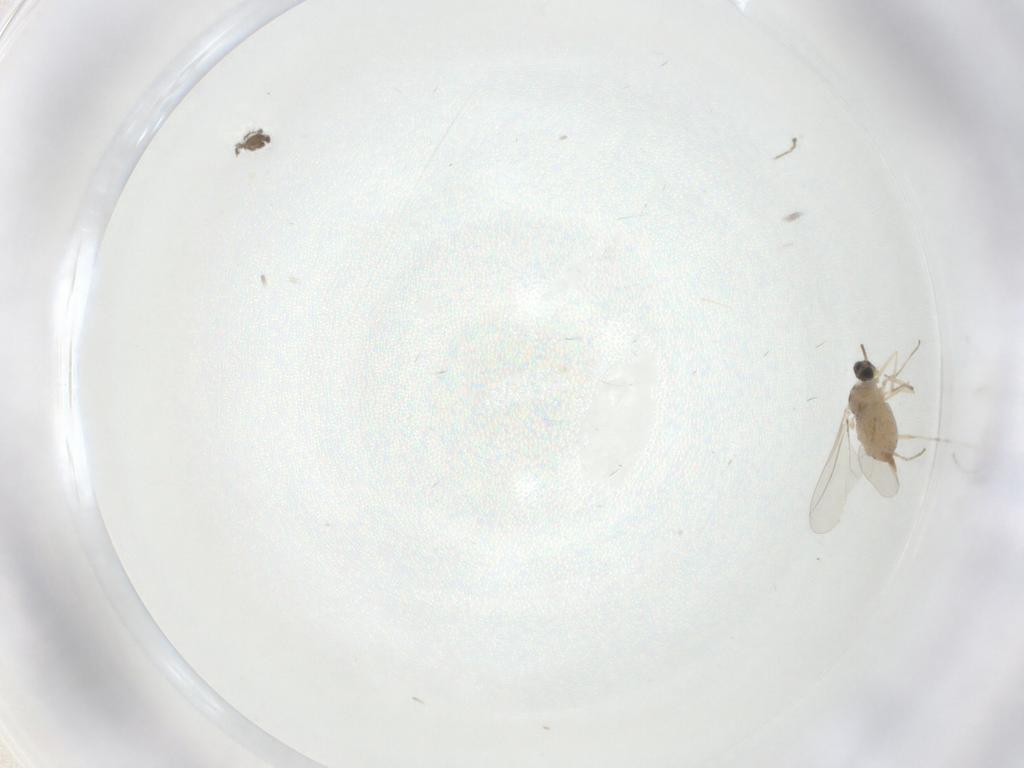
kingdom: Animalia
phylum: Arthropoda
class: Insecta
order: Diptera
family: Cecidomyiidae
